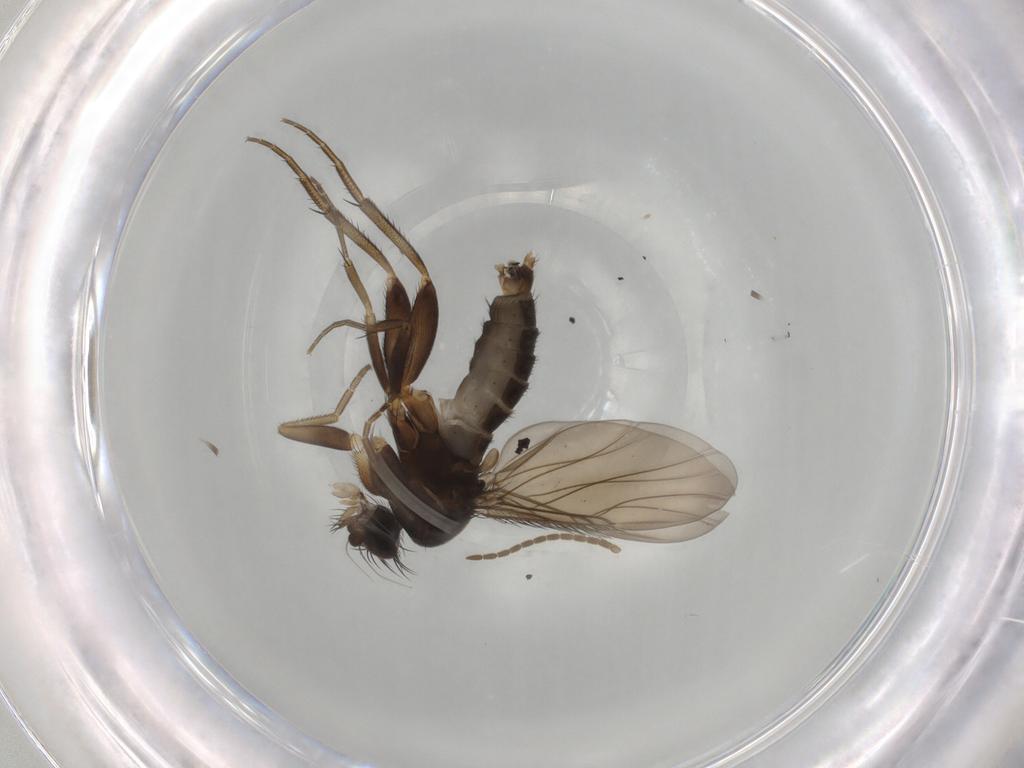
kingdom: Animalia
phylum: Arthropoda
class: Insecta
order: Diptera
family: Phoridae
